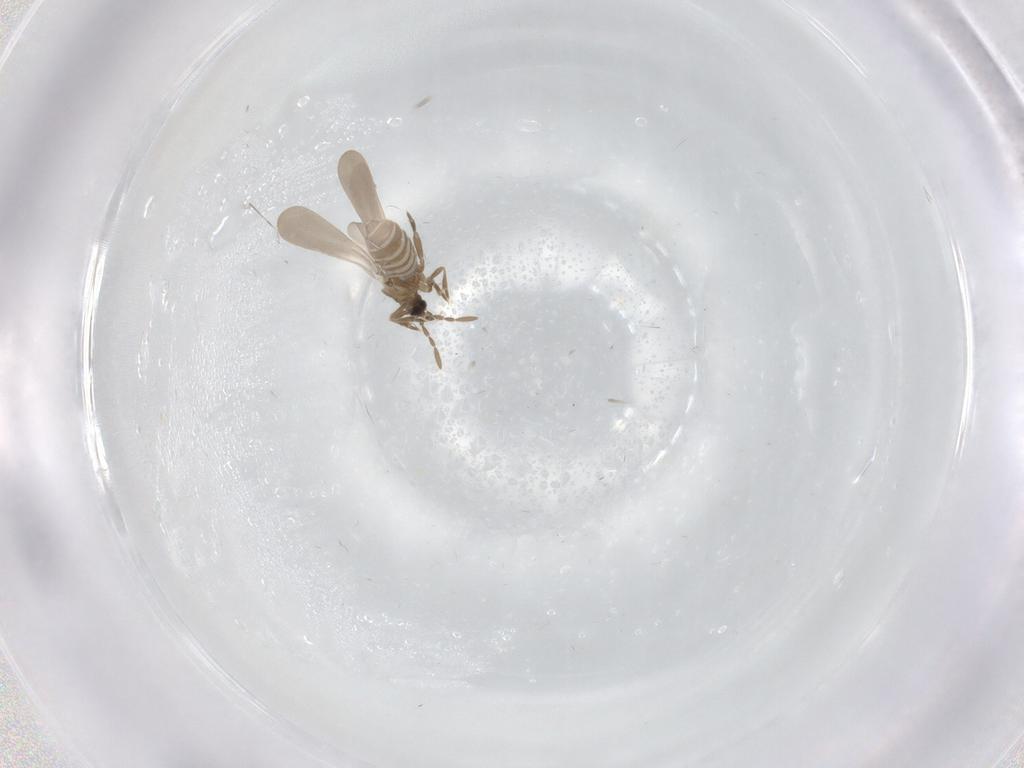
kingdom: Animalia
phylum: Arthropoda
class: Insecta
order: Hemiptera
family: Enicocephalidae
